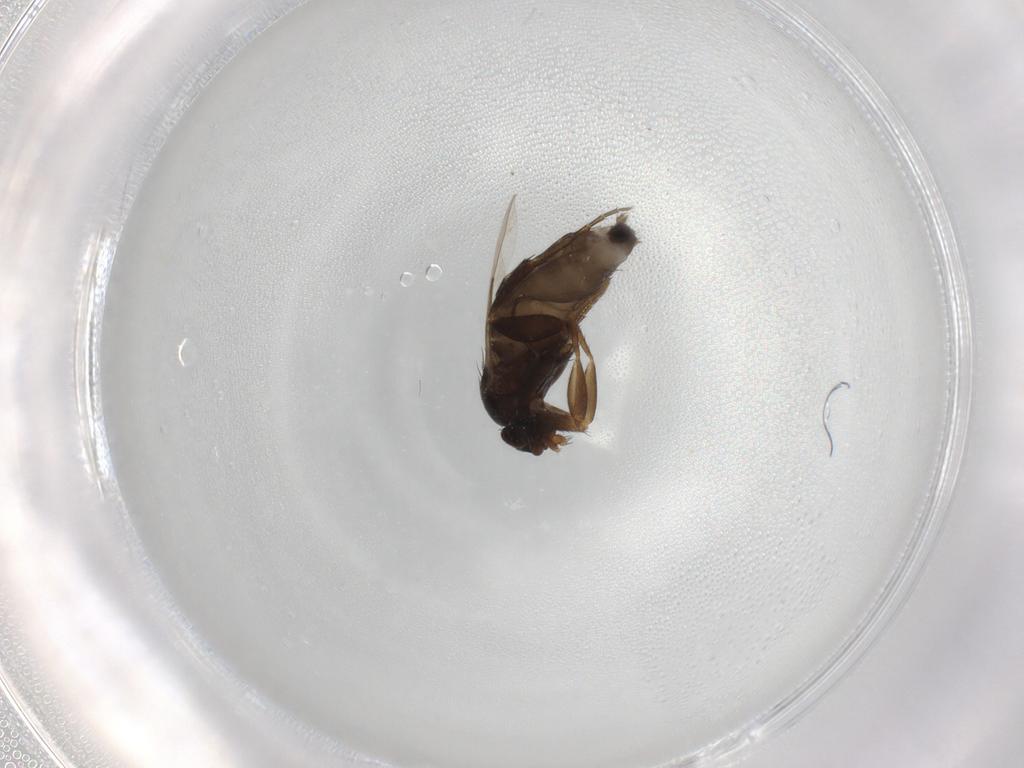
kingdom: Animalia
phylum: Arthropoda
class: Insecta
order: Diptera
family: Phoridae
